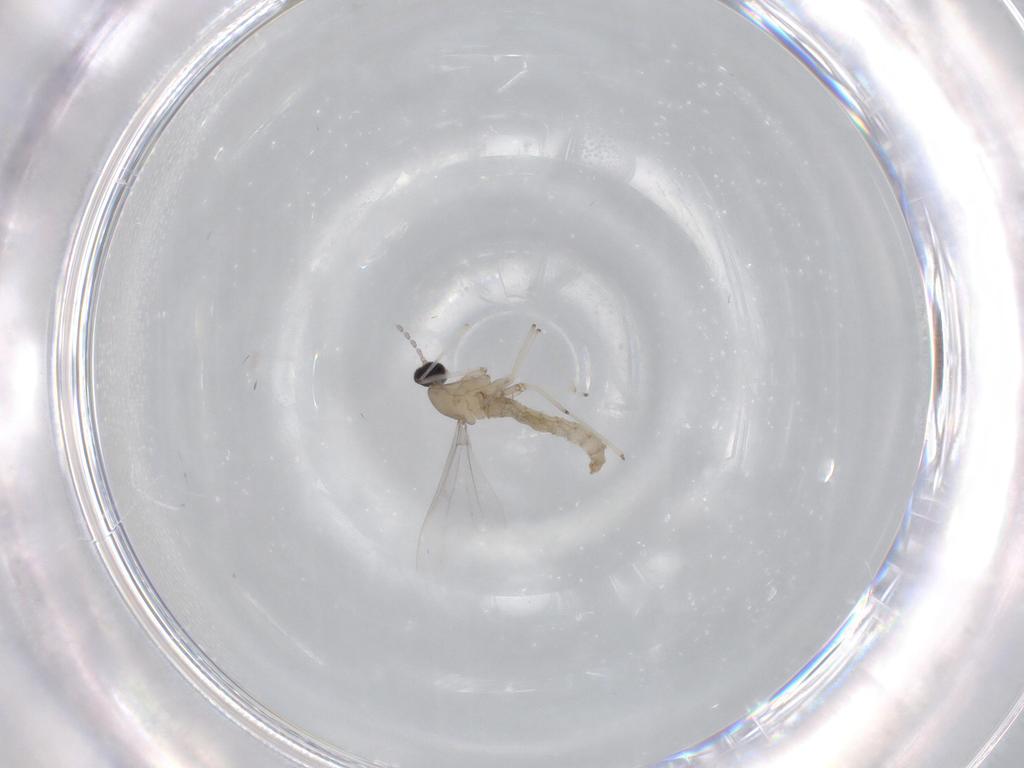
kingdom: Animalia
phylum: Arthropoda
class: Insecta
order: Diptera
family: Cecidomyiidae
